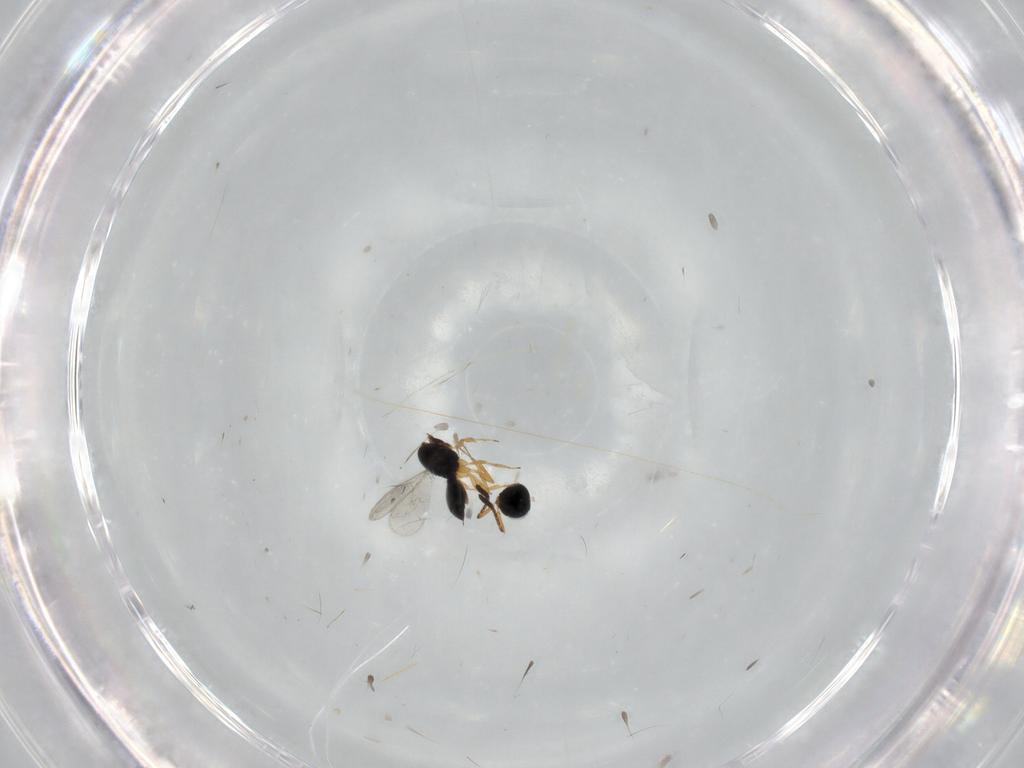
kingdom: Animalia
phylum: Arthropoda
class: Insecta
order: Hymenoptera
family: Scelionidae
